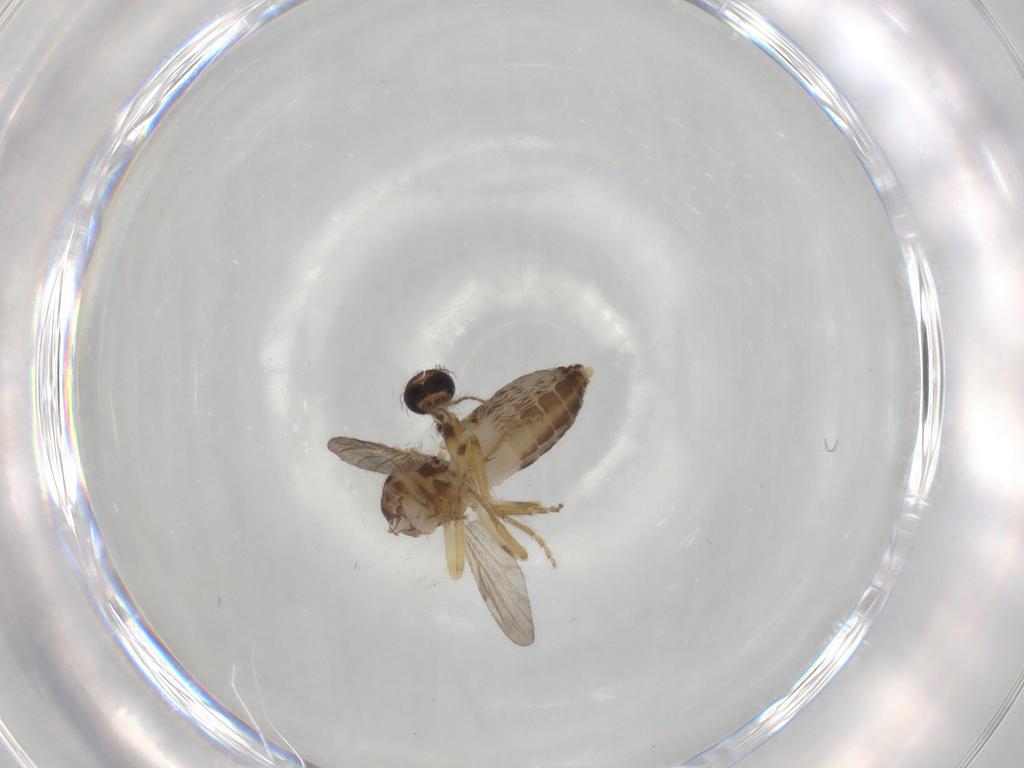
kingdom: Animalia
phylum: Arthropoda
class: Insecta
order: Diptera
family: Ceratopogonidae
